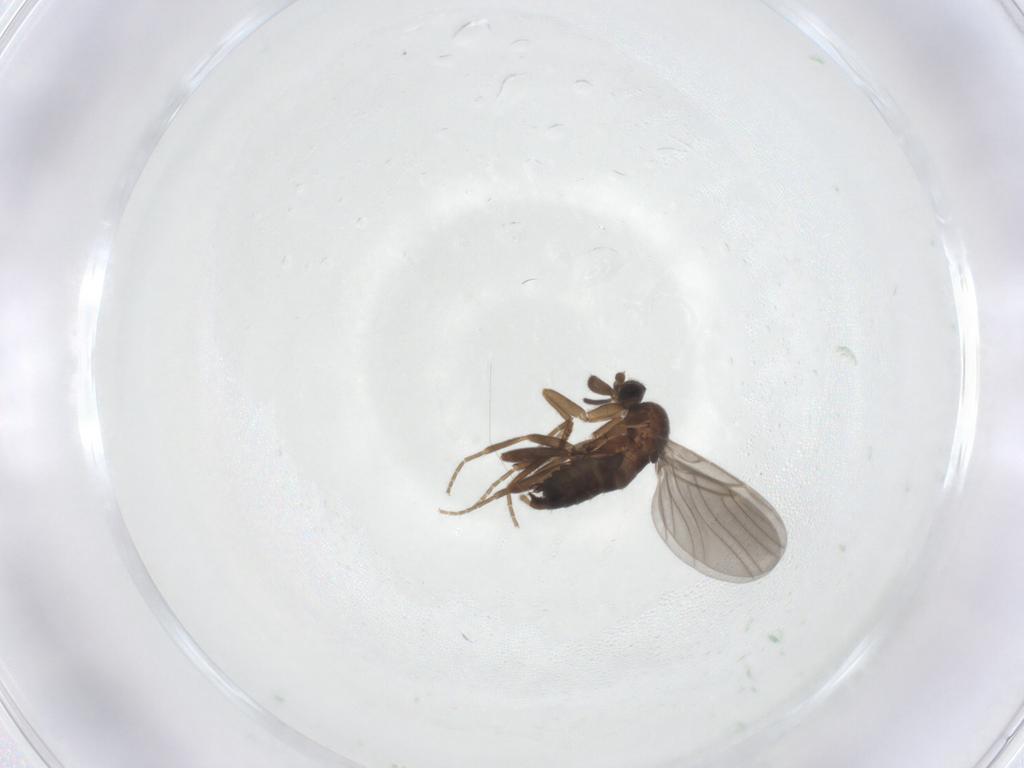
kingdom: Animalia
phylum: Arthropoda
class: Insecta
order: Diptera
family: Phoridae
